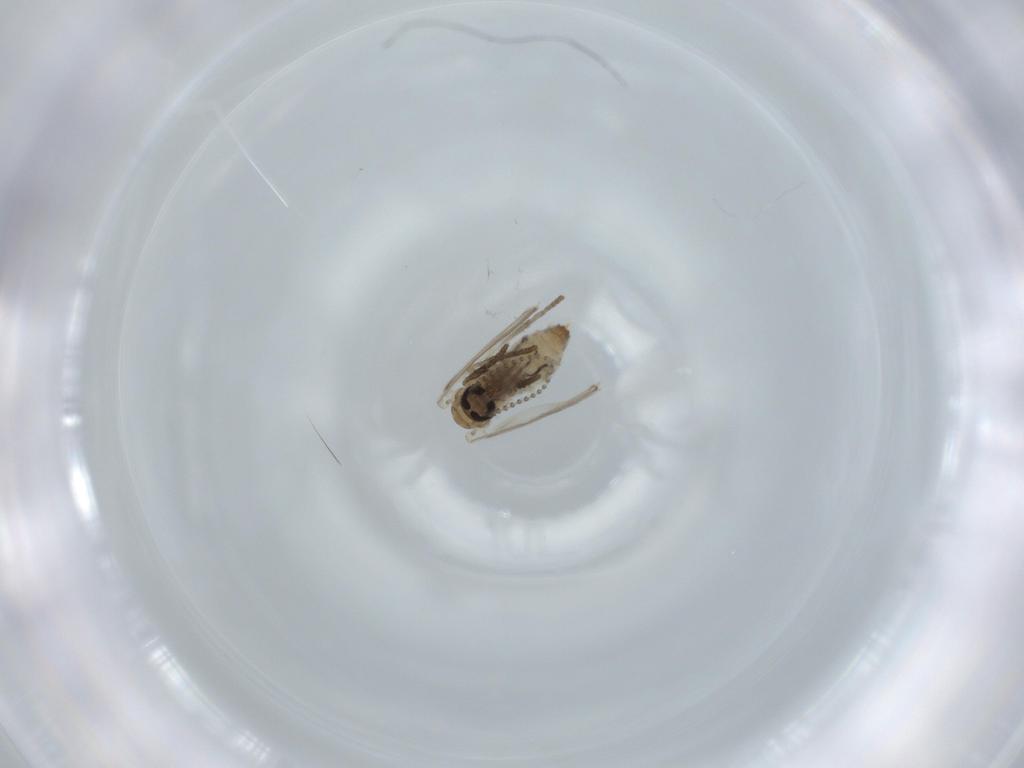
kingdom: Animalia
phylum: Arthropoda
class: Insecta
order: Diptera
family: Psychodidae
